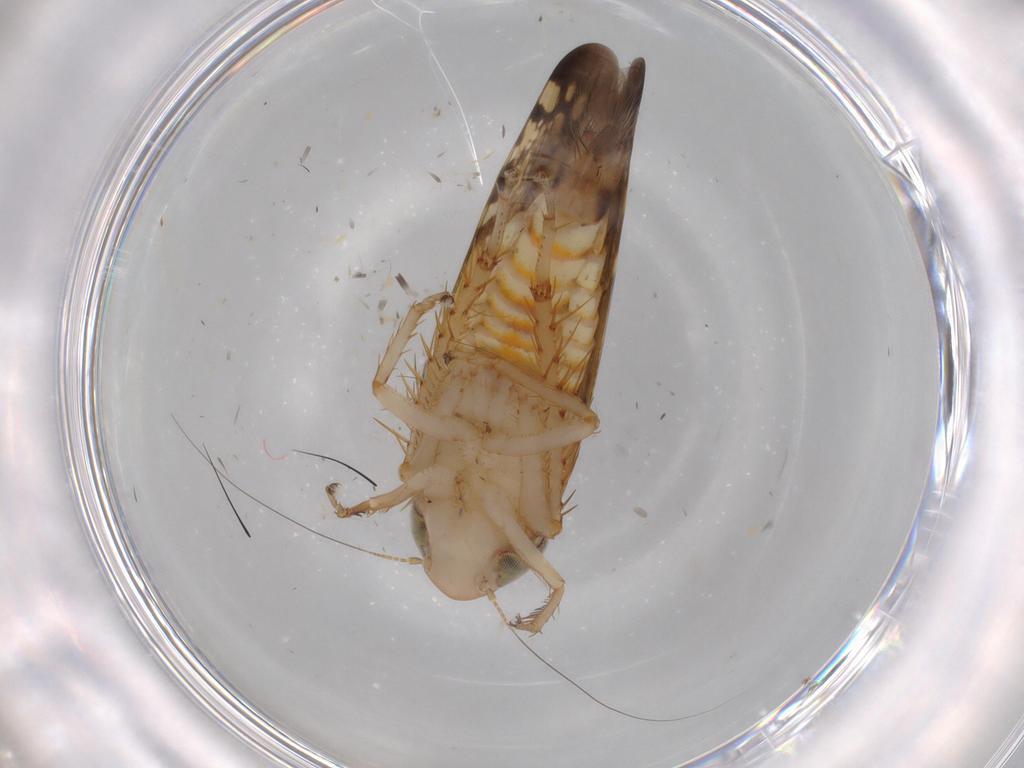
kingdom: Animalia
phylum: Arthropoda
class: Insecta
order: Hemiptera
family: Cicadellidae
